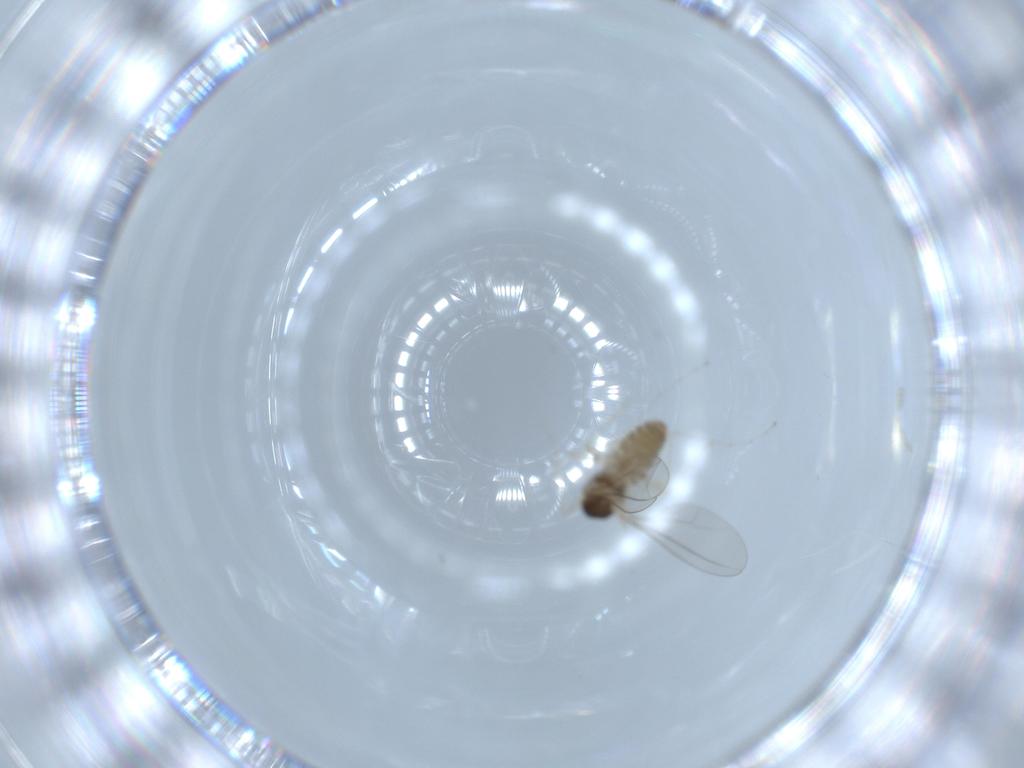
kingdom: Animalia
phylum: Arthropoda
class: Insecta
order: Diptera
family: Cecidomyiidae
